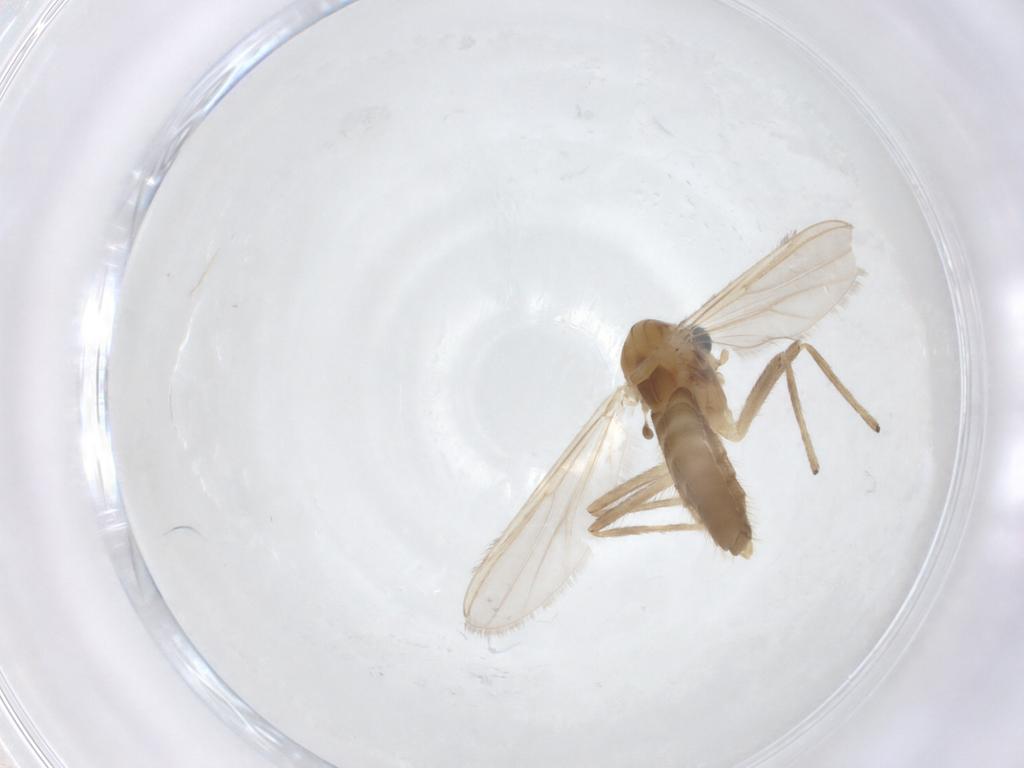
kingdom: Animalia
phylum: Arthropoda
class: Insecta
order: Diptera
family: Chironomidae
